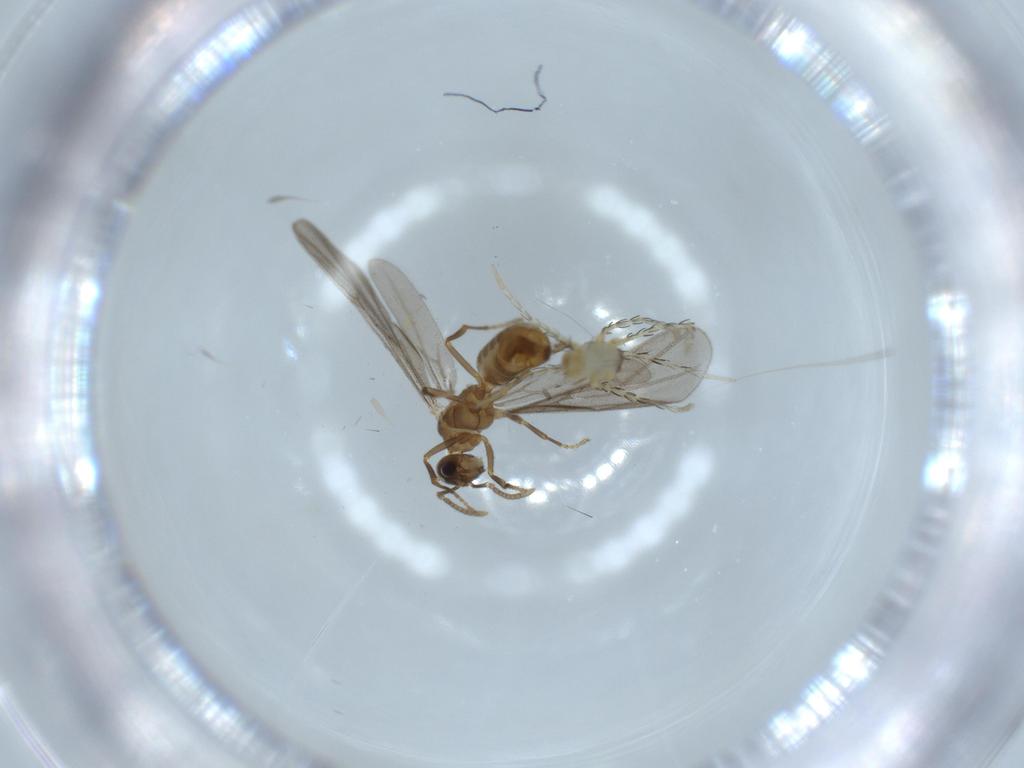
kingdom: Animalia
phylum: Arthropoda
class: Insecta
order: Hymenoptera
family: Formicidae
